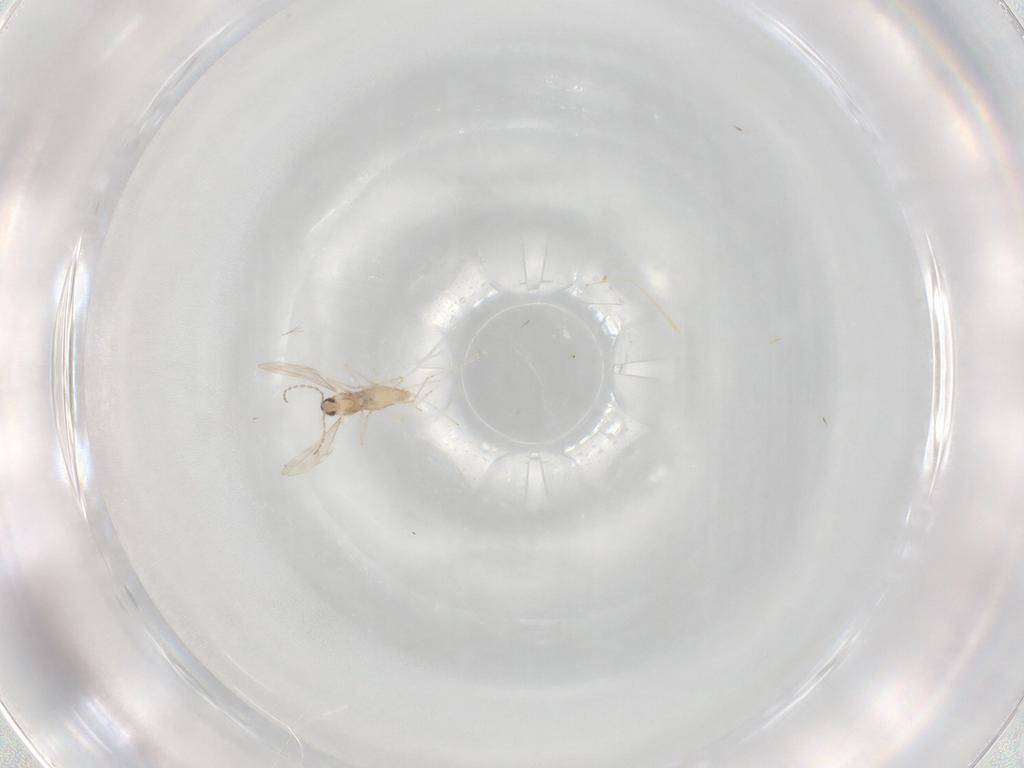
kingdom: Animalia
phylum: Arthropoda
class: Insecta
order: Diptera
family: Cecidomyiidae
